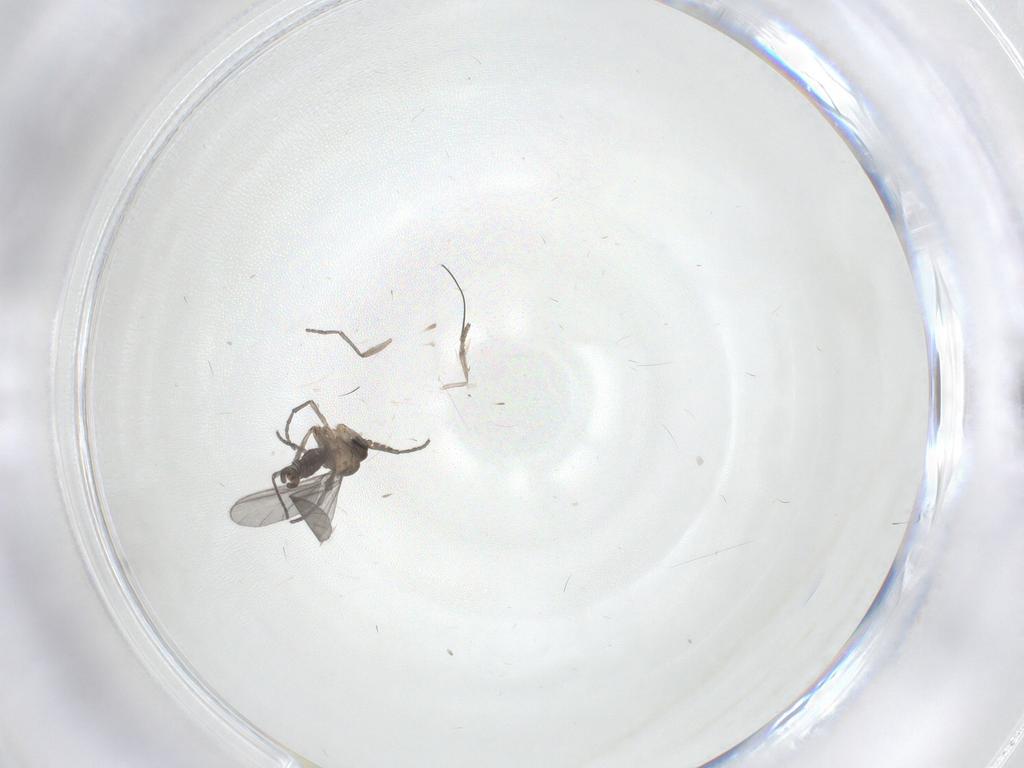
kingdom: Animalia
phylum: Arthropoda
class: Insecta
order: Diptera
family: Sciaridae
